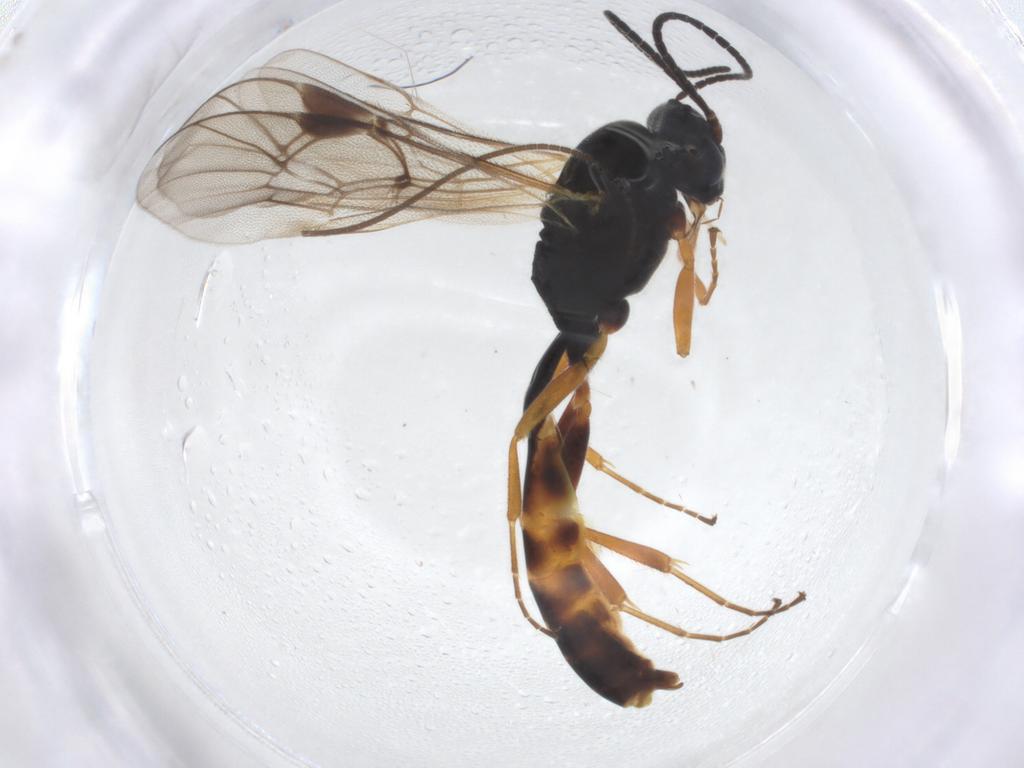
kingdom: Animalia
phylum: Arthropoda
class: Insecta
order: Hymenoptera
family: Ichneumonidae
